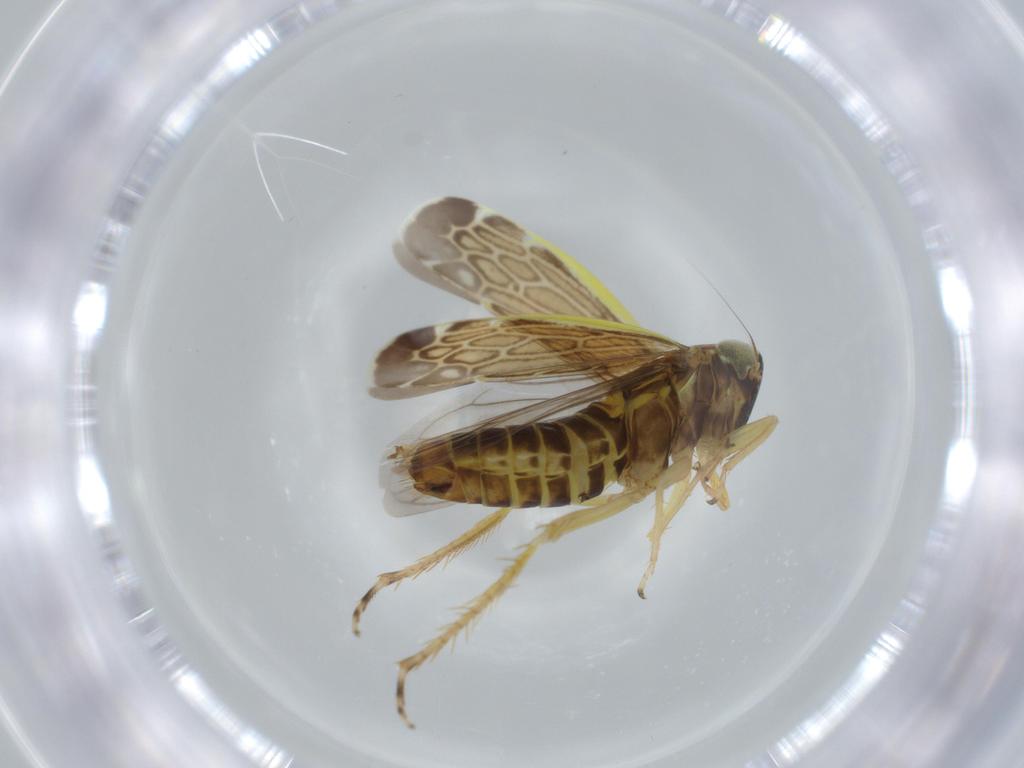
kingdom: Animalia
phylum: Arthropoda
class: Insecta
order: Hemiptera
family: Cicadellidae
